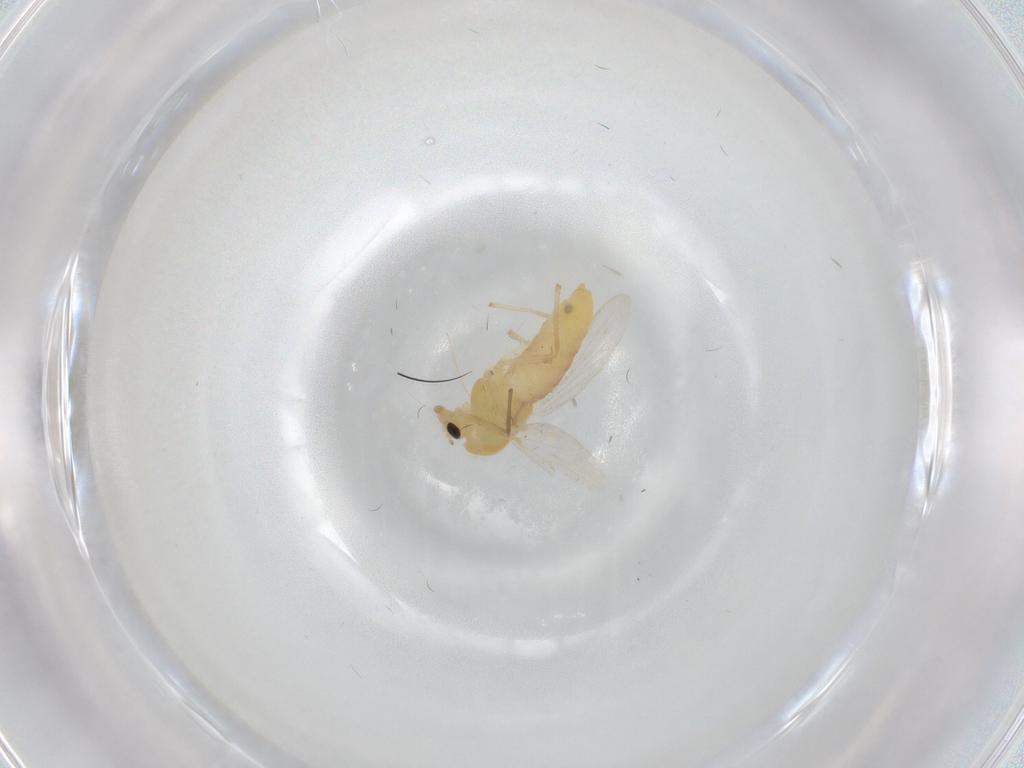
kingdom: Animalia
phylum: Arthropoda
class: Insecta
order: Diptera
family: Chironomidae
